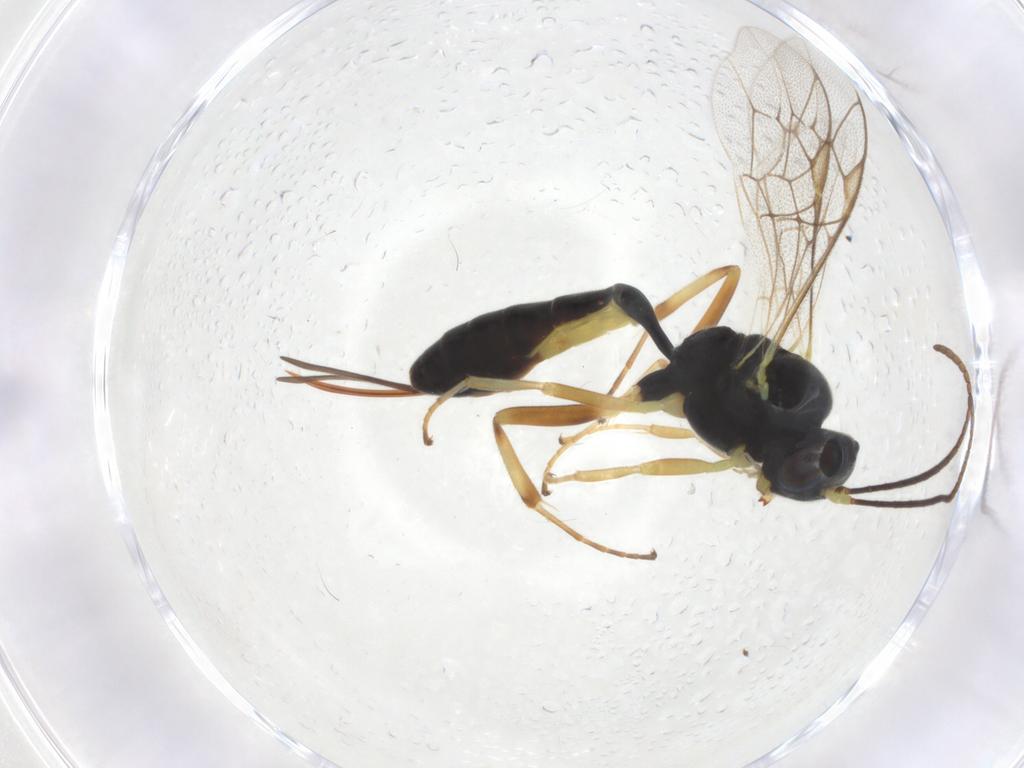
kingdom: Animalia
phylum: Arthropoda
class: Insecta
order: Hymenoptera
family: Ichneumonidae
